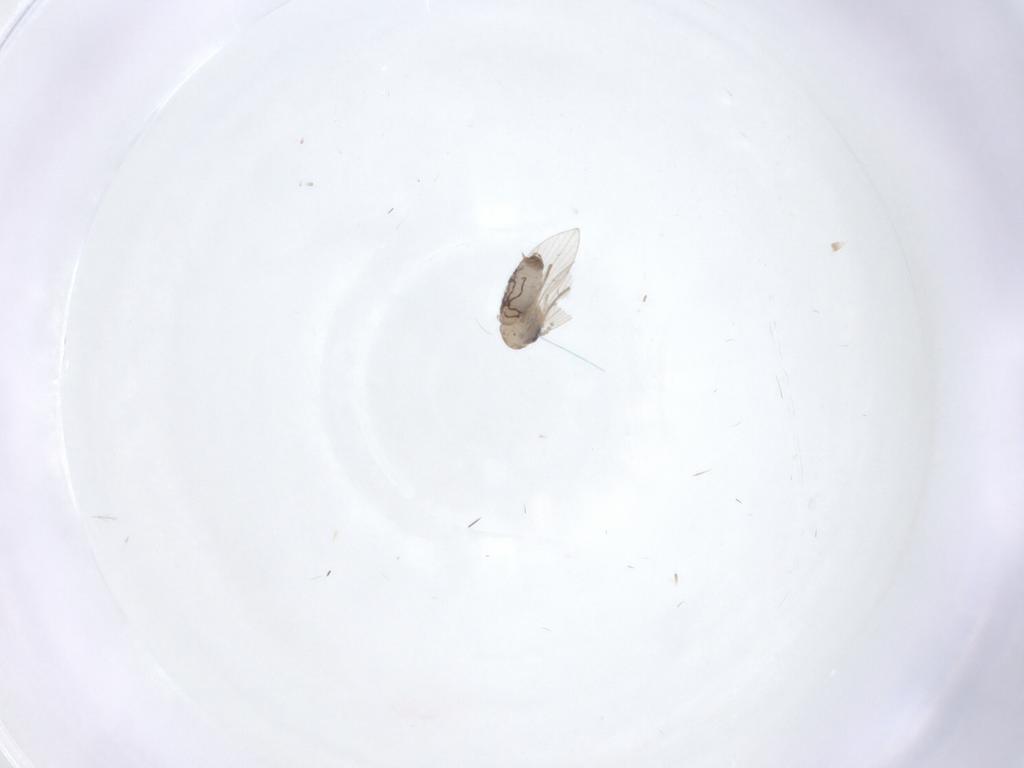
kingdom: Animalia
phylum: Arthropoda
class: Insecta
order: Diptera
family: Psychodidae
